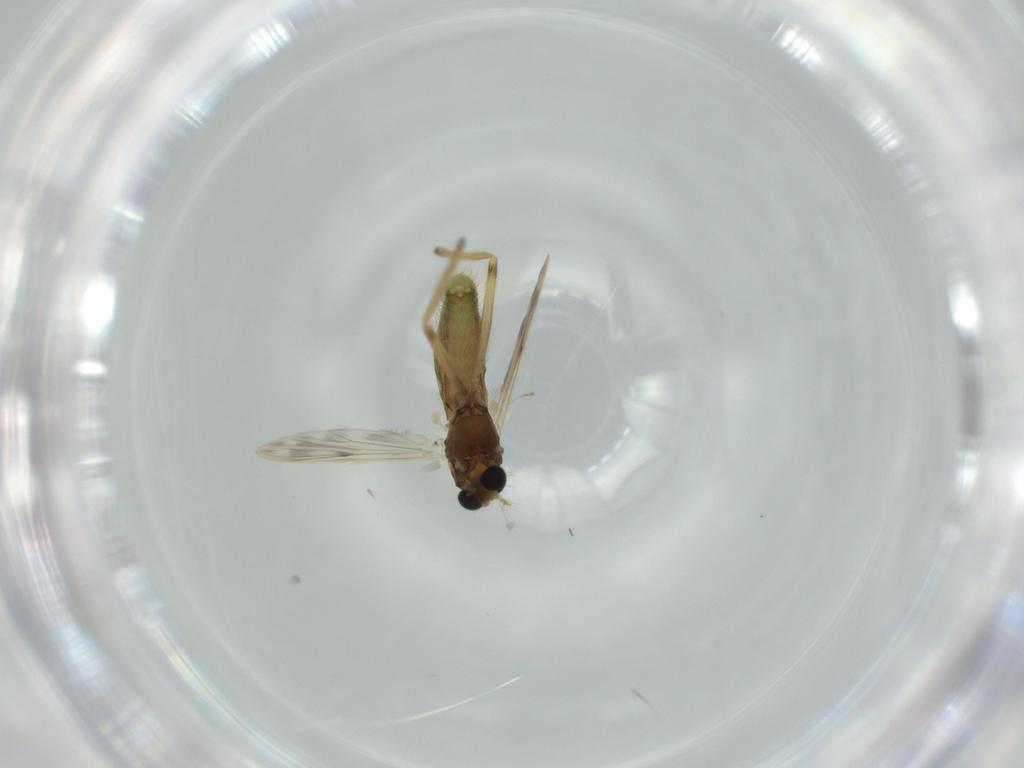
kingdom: Animalia
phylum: Arthropoda
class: Insecta
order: Diptera
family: Chironomidae
